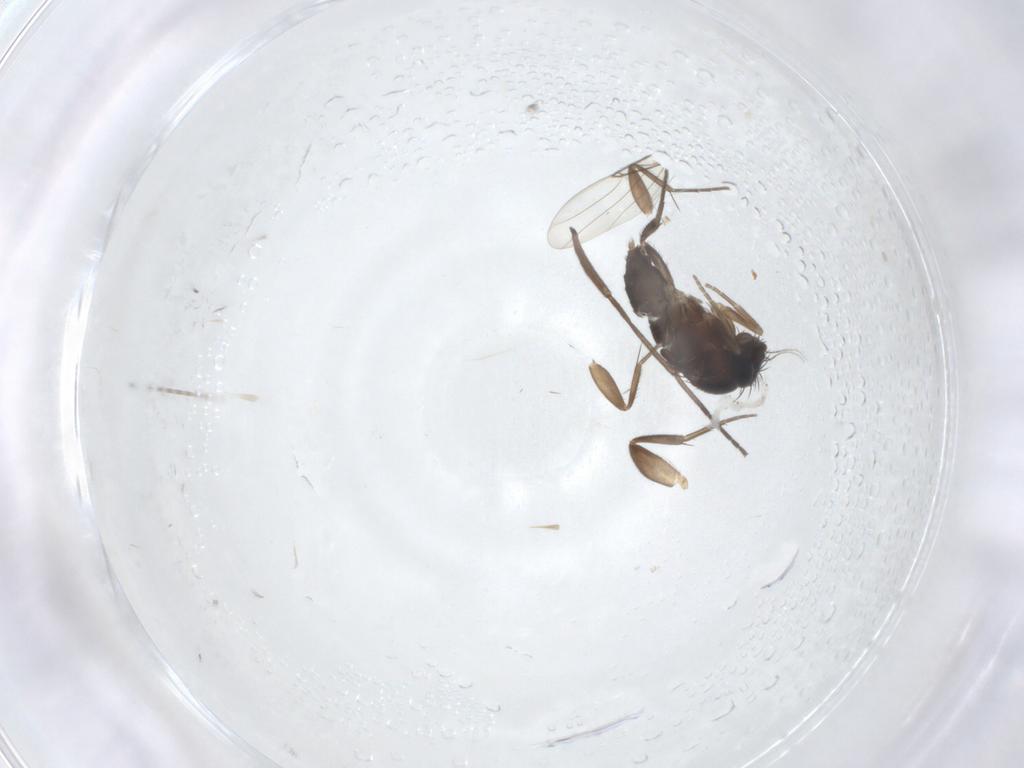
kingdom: Animalia
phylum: Arthropoda
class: Insecta
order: Diptera
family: Phoridae
